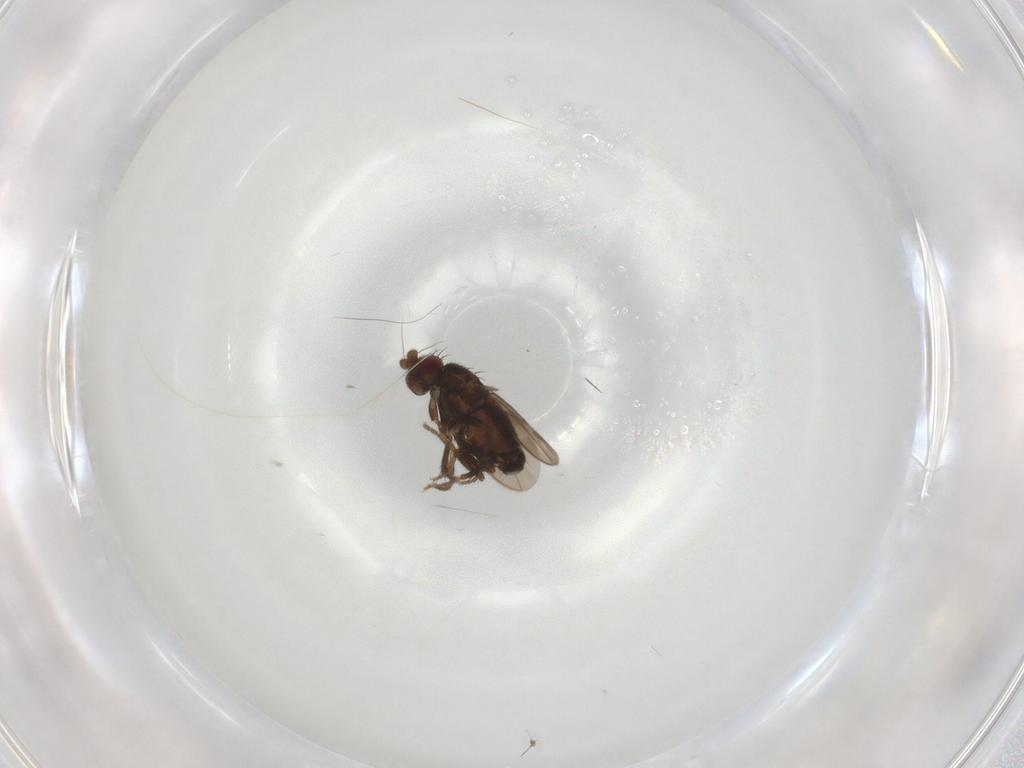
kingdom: Animalia
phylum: Arthropoda
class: Insecta
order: Diptera
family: Sphaeroceridae
